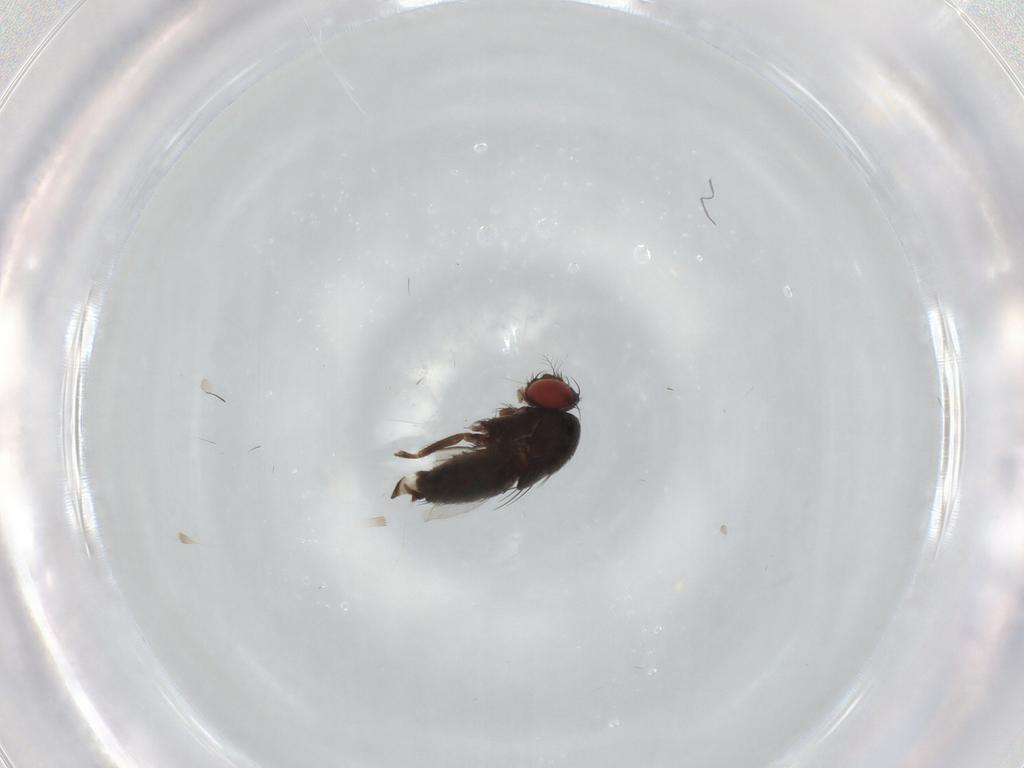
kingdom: Animalia
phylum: Arthropoda
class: Insecta
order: Diptera
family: Drosophilidae
